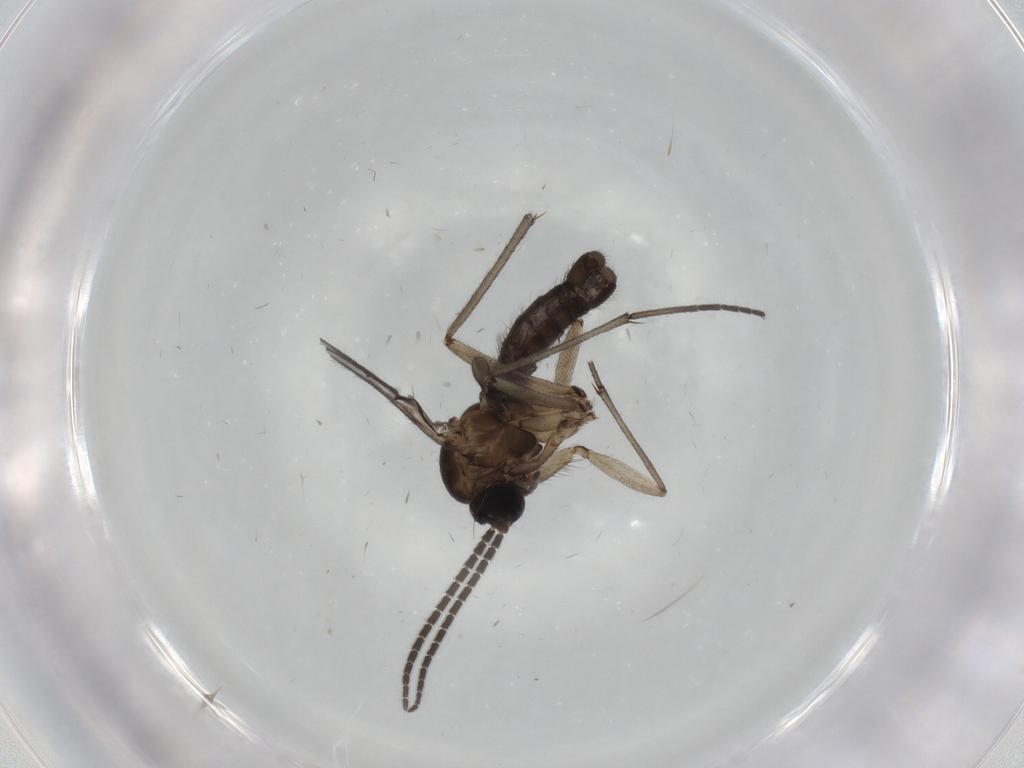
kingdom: Animalia
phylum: Arthropoda
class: Insecta
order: Diptera
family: Sciaridae
